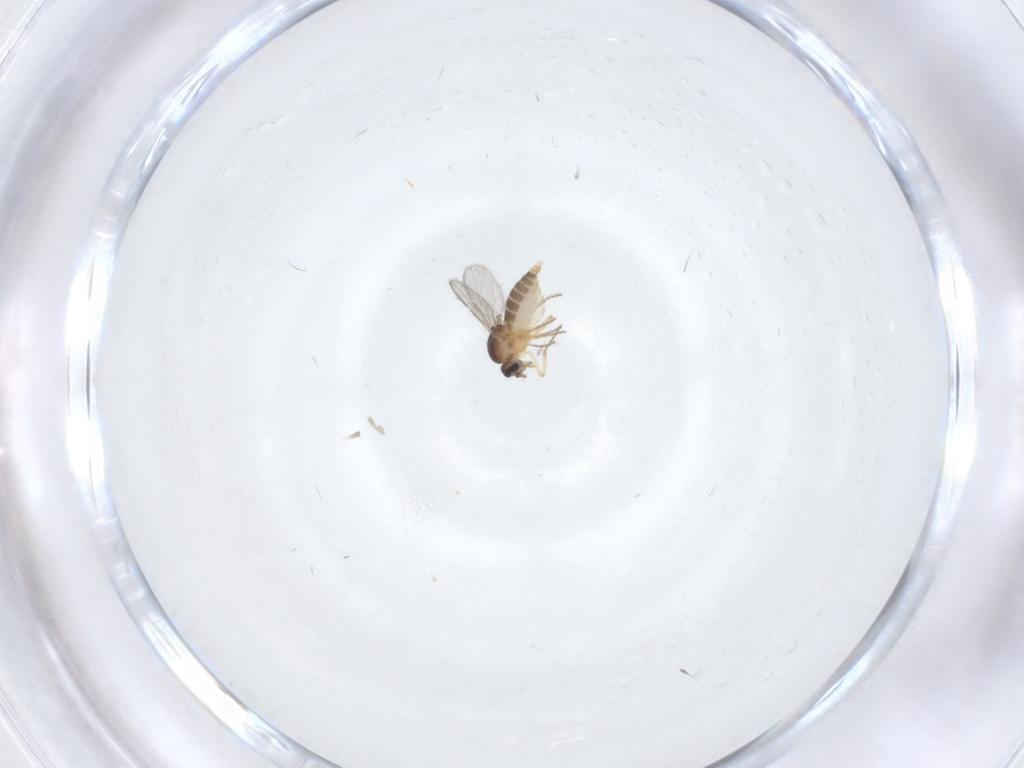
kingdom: Animalia
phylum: Arthropoda
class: Insecta
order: Diptera
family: Ceratopogonidae
